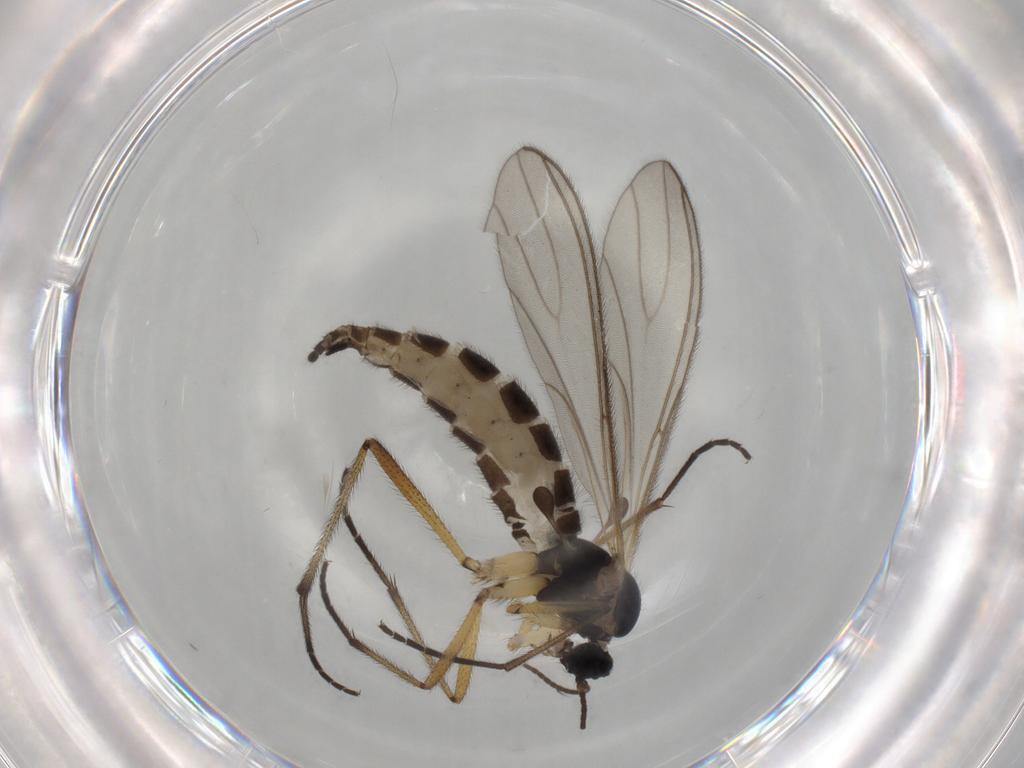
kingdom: Animalia
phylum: Arthropoda
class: Insecta
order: Diptera
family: Sciaridae
